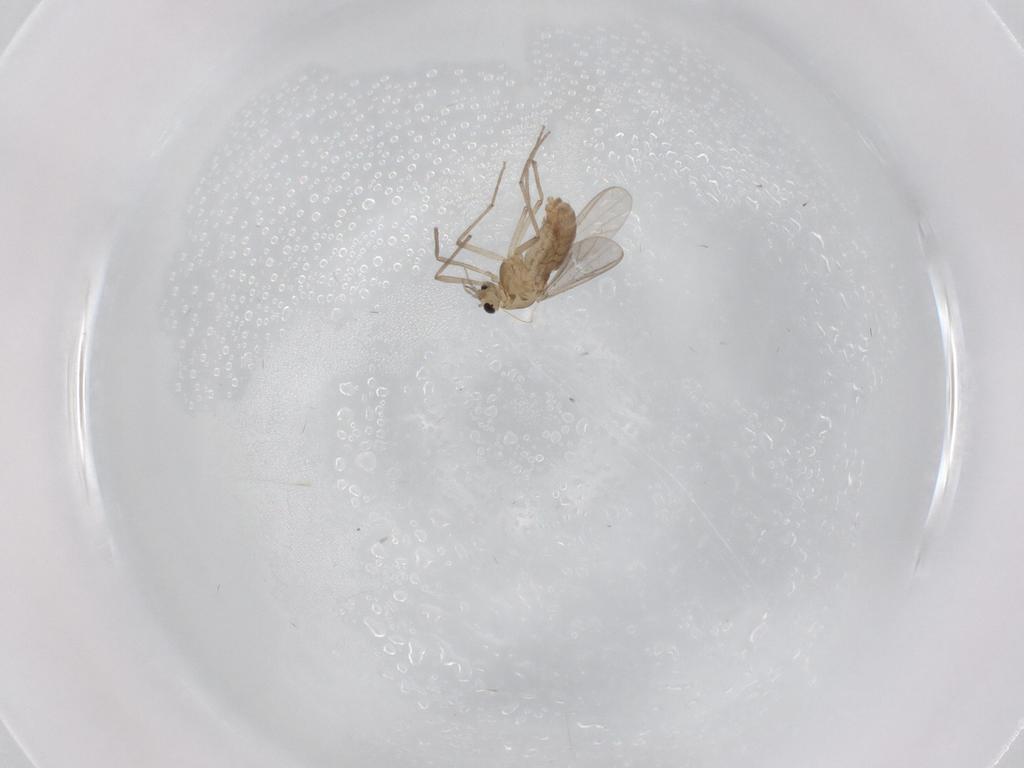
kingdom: Animalia
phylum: Arthropoda
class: Insecta
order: Diptera
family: Chironomidae
